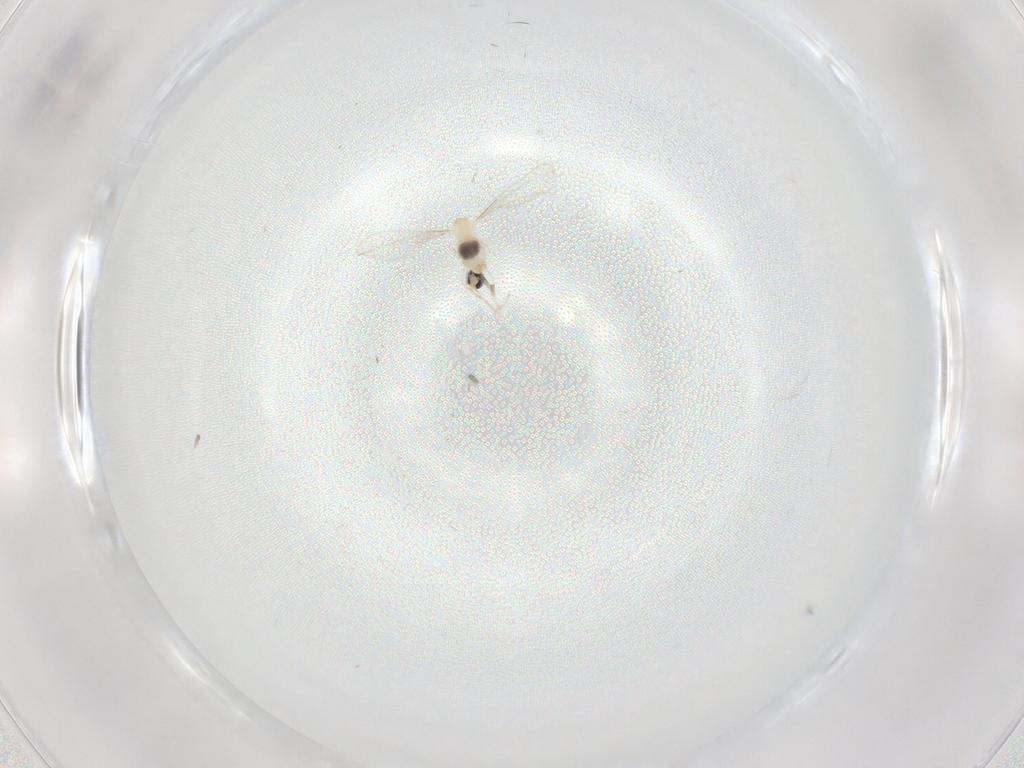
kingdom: Animalia
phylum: Arthropoda
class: Insecta
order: Diptera
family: Cecidomyiidae
